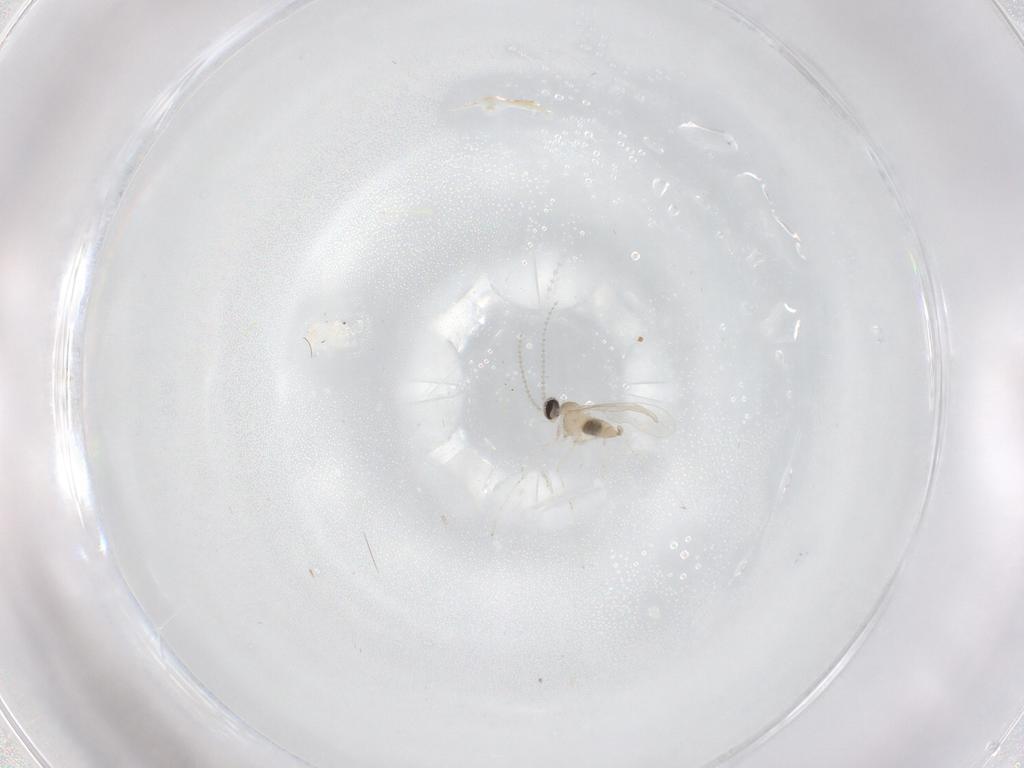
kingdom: Animalia
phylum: Arthropoda
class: Insecta
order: Diptera
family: Cecidomyiidae
